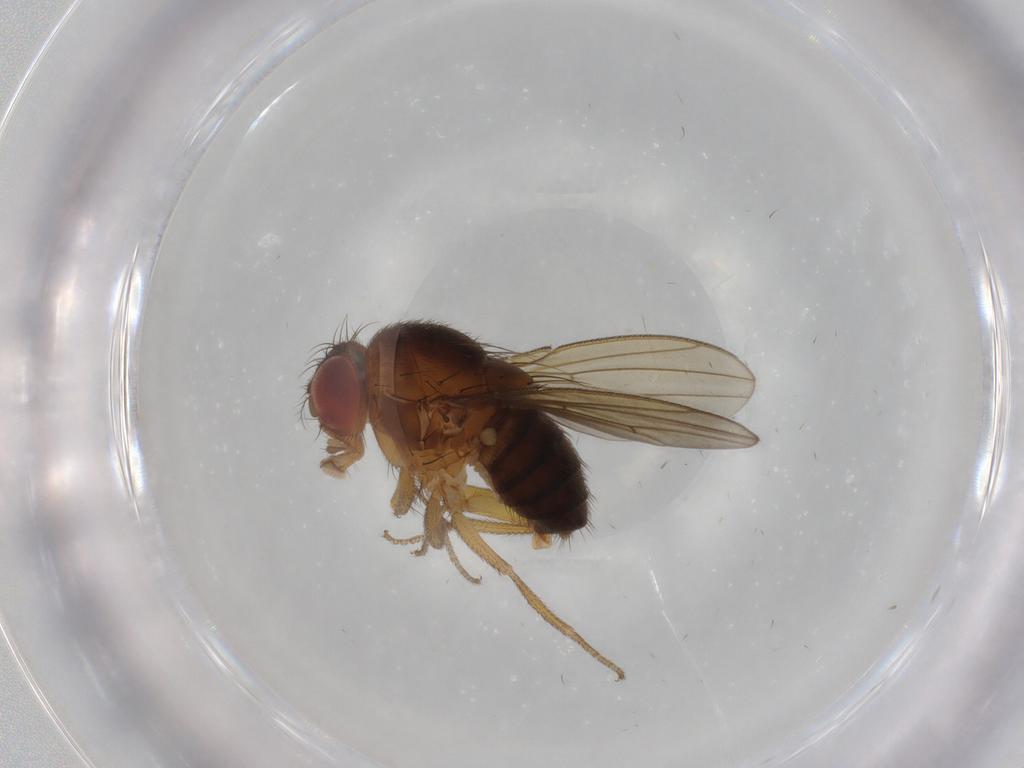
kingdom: Animalia
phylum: Arthropoda
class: Insecta
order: Diptera
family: Drosophilidae
